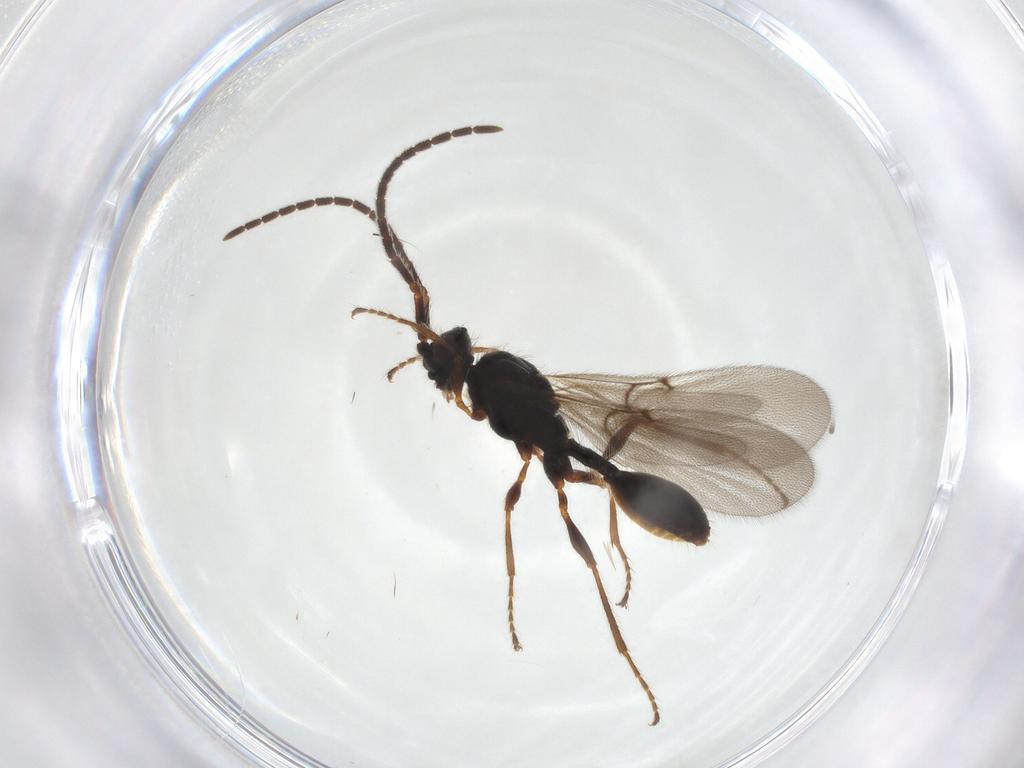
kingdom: Animalia
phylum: Arthropoda
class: Insecta
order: Hymenoptera
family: Diapriidae
